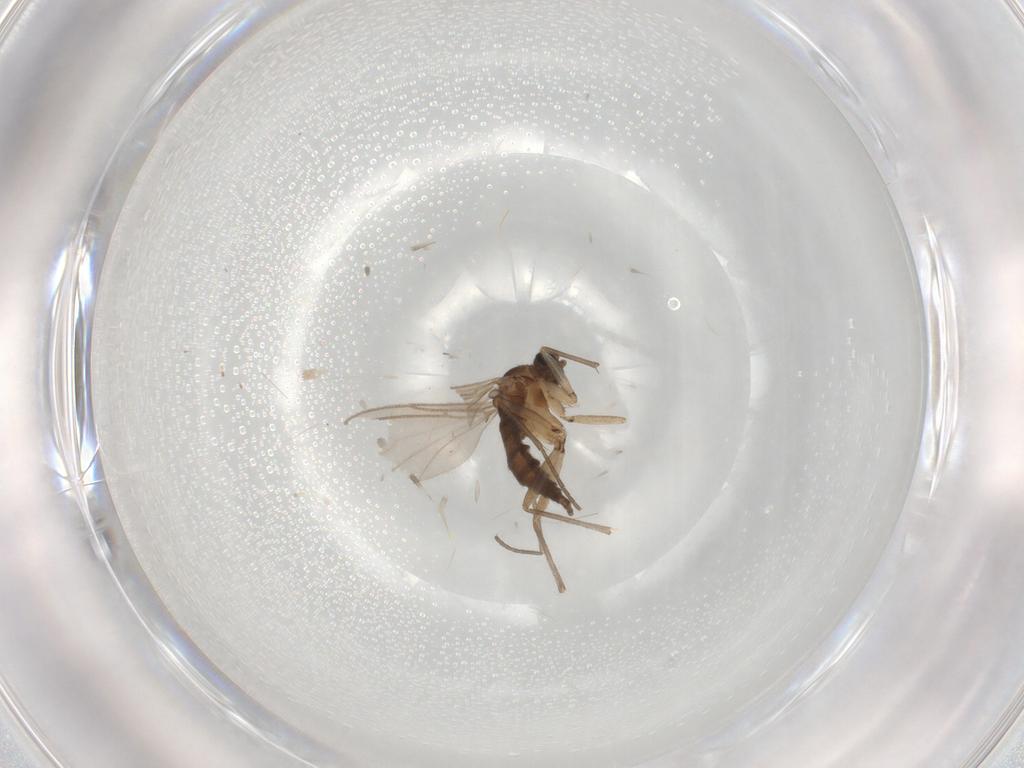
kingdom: Animalia
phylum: Arthropoda
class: Insecta
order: Diptera
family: Sciaridae
